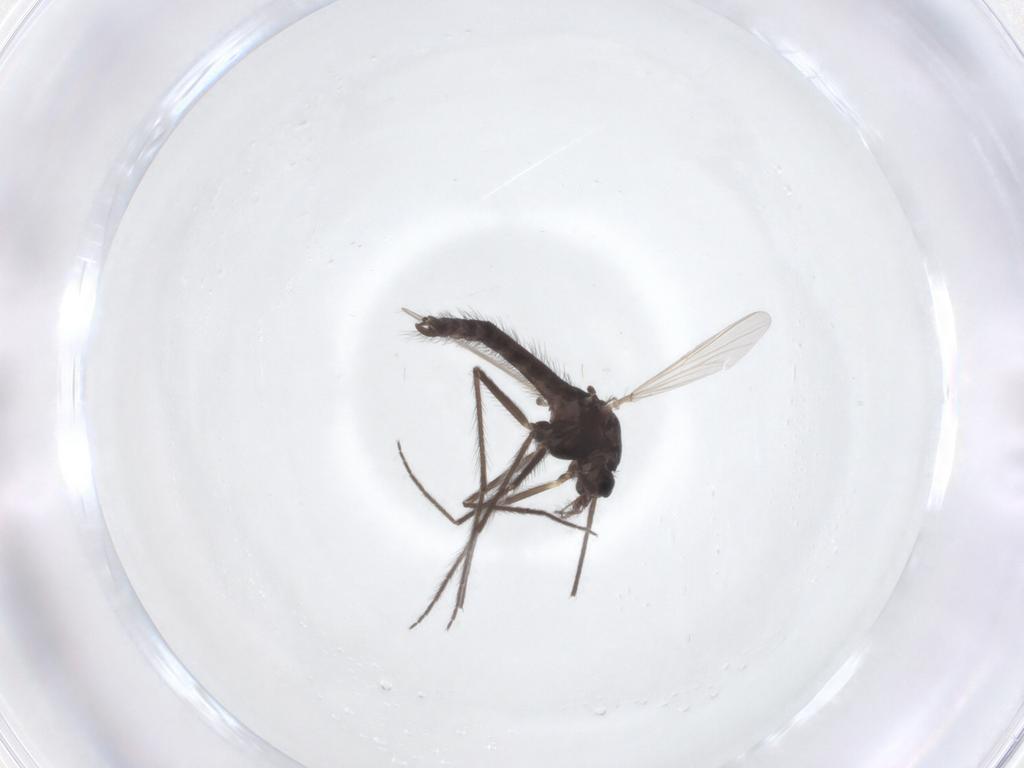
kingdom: Animalia
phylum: Arthropoda
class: Insecta
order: Diptera
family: Chironomidae
